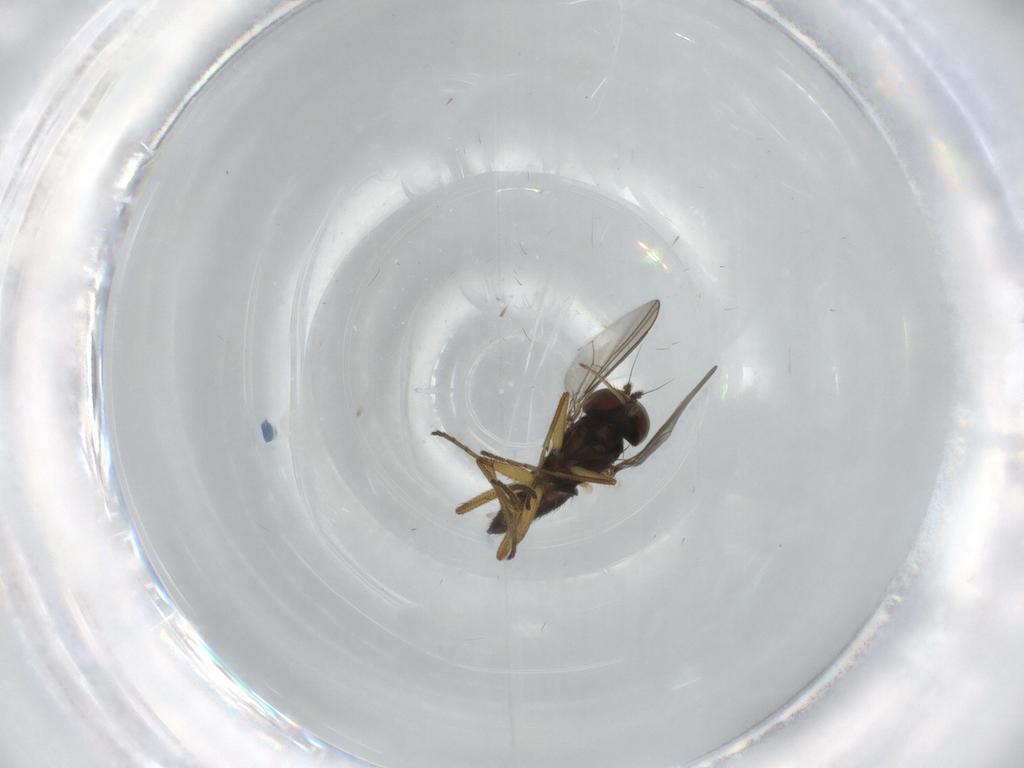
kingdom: Animalia
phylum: Arthropoda
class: Insecta
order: Diptera
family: Dolichopodidae
